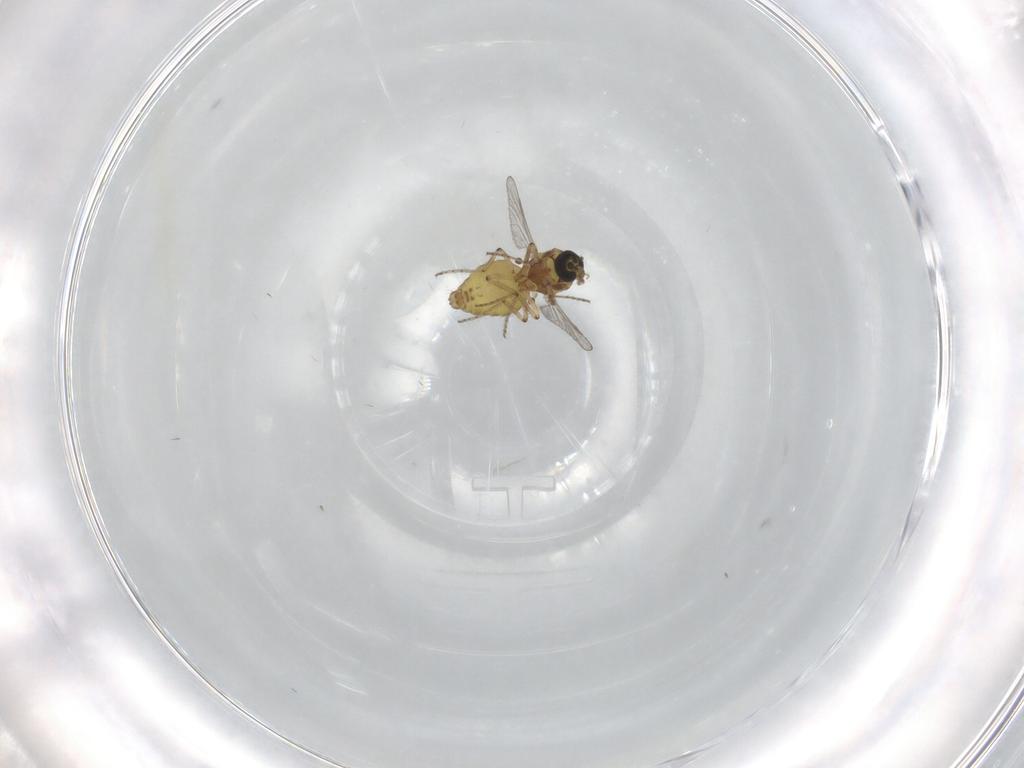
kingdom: Animalia
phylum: Arthropoda
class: Insecta
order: Diptera
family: Ceratopogonidae
